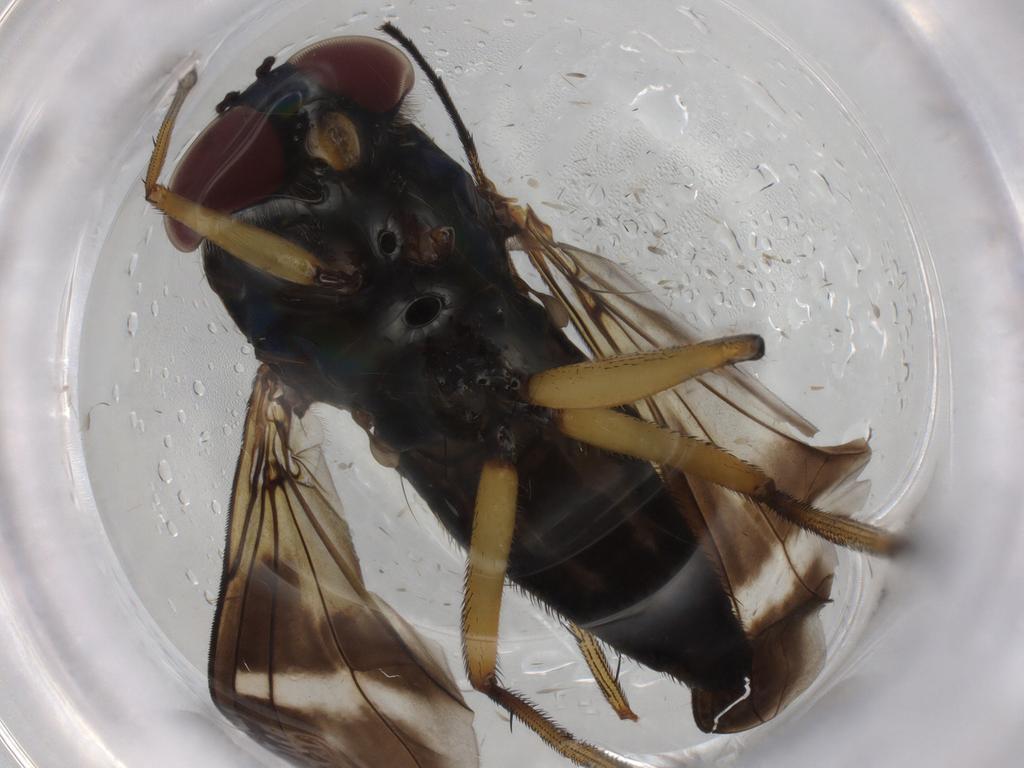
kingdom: Animalia
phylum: Arthropoda
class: Insecta
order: Diptera
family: Mycetophilidae
